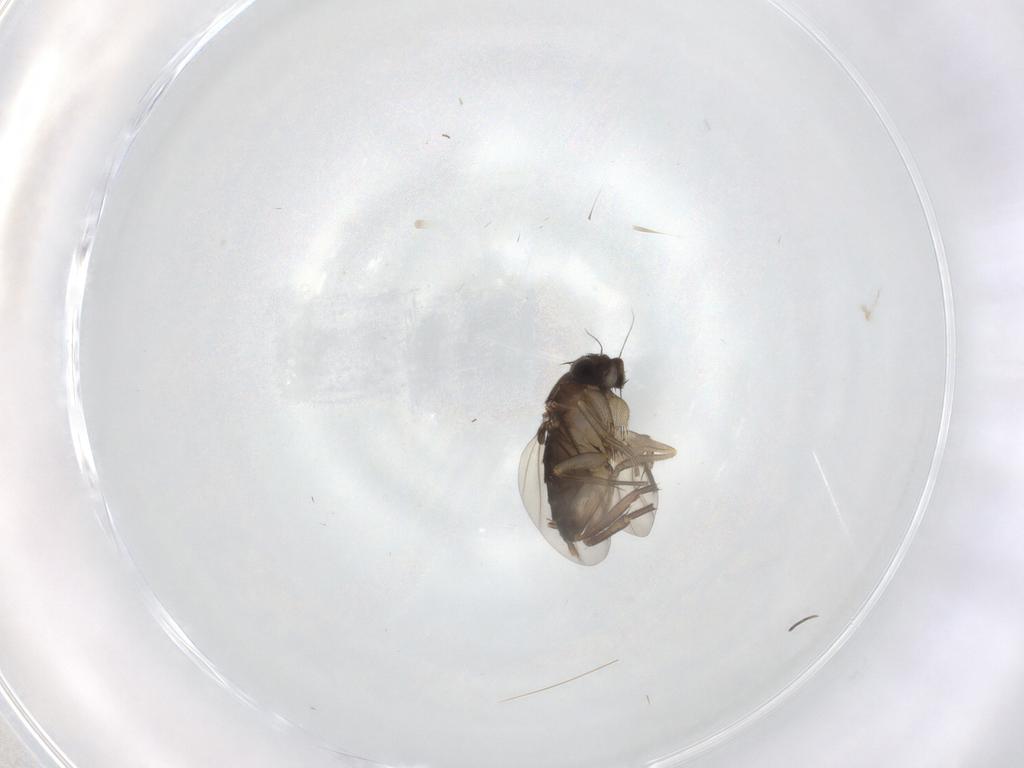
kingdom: Animalia
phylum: Arthropoda
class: Insecta
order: Diptera
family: Phoridae
